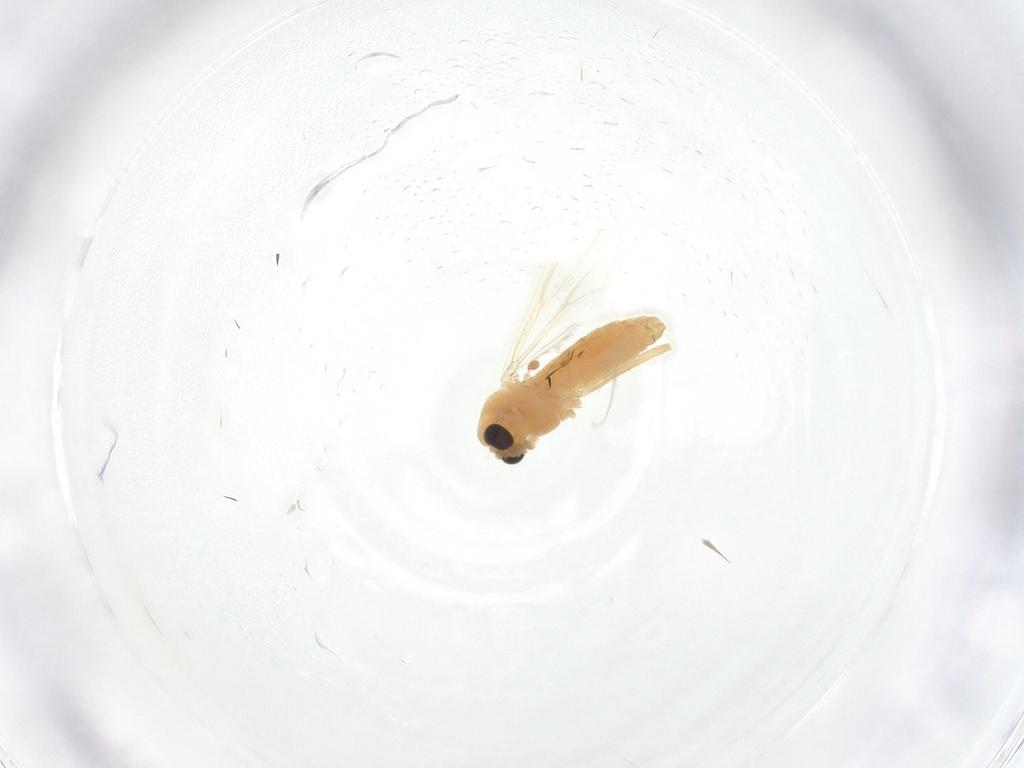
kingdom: Animalia
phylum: Arthropoda
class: Insecta
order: Diptera
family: Chironomidae
